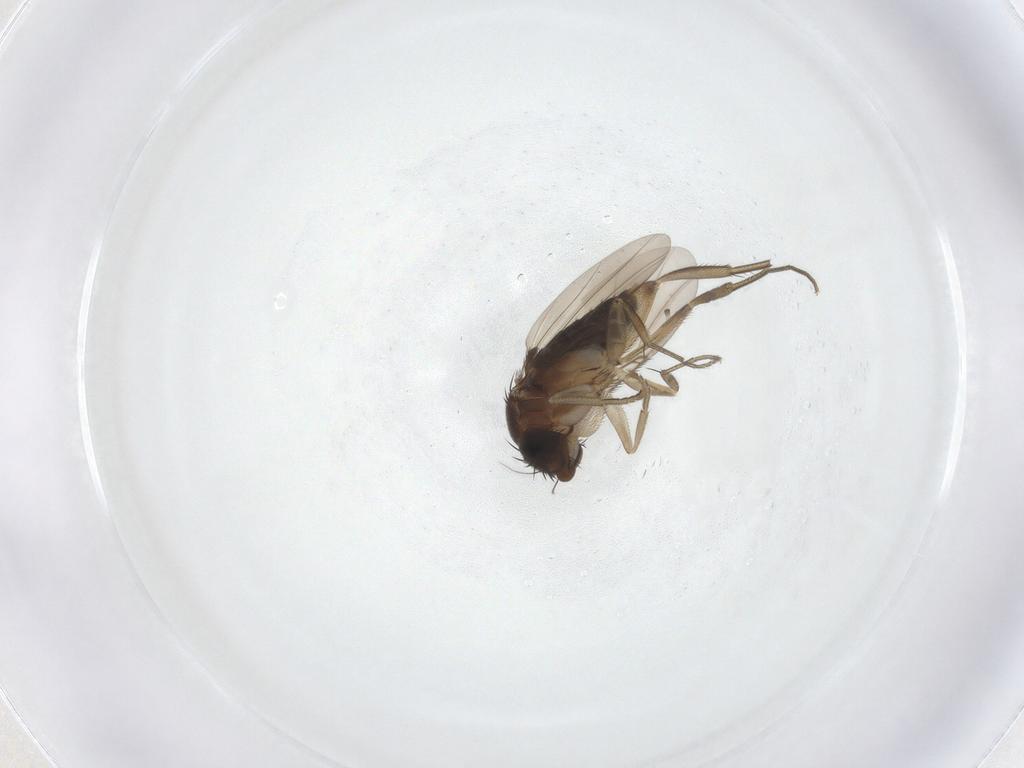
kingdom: Animalia
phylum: Arthropoda
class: Insecta
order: Diptera
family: Phoridae
